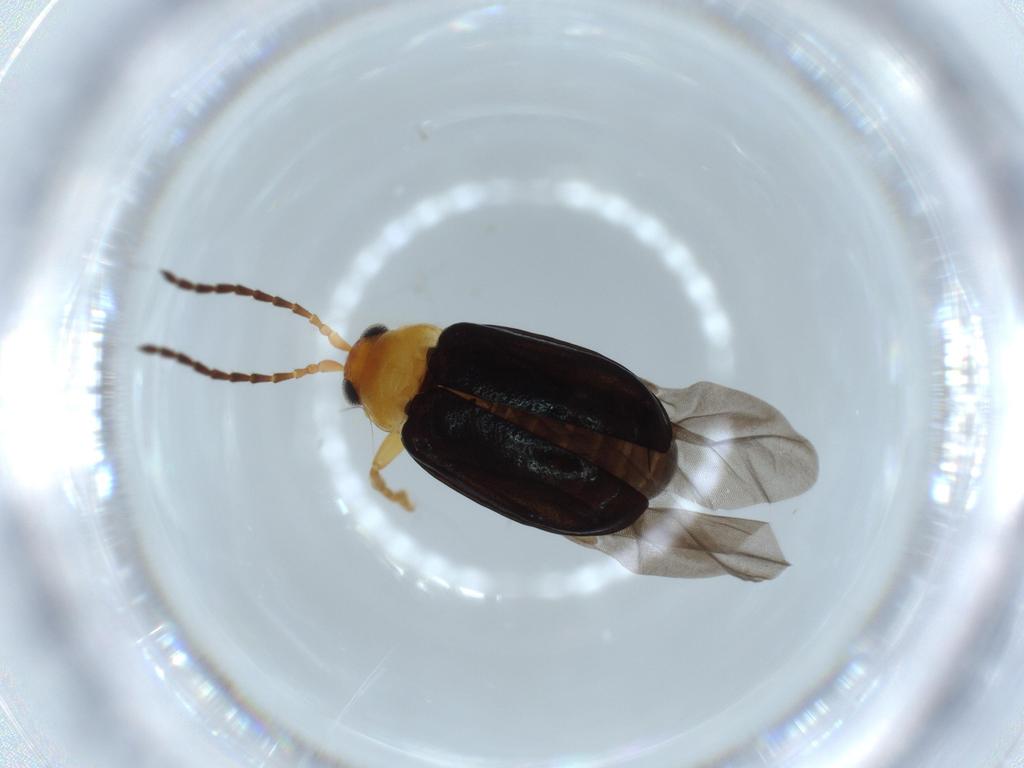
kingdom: Animalia
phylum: Arthropoda
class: Insecta
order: Coleoptera
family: Chrysomelidae
